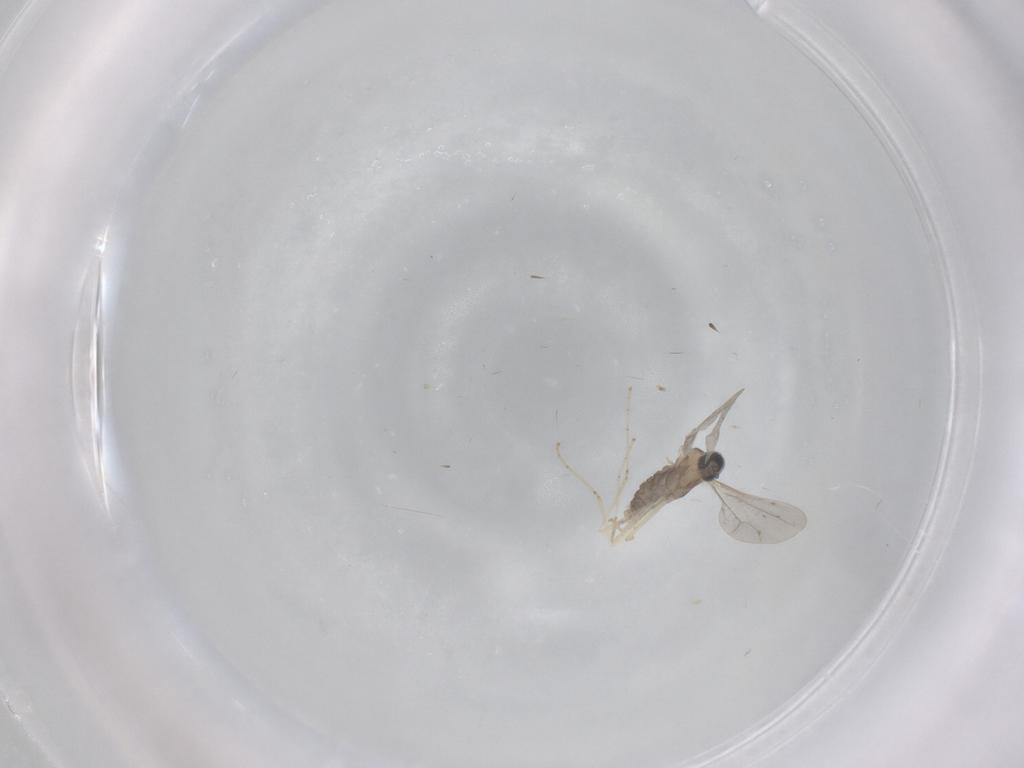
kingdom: Animalia
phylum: Arthropoda
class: Insecta
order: Diptera
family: Cecidomyiidae
